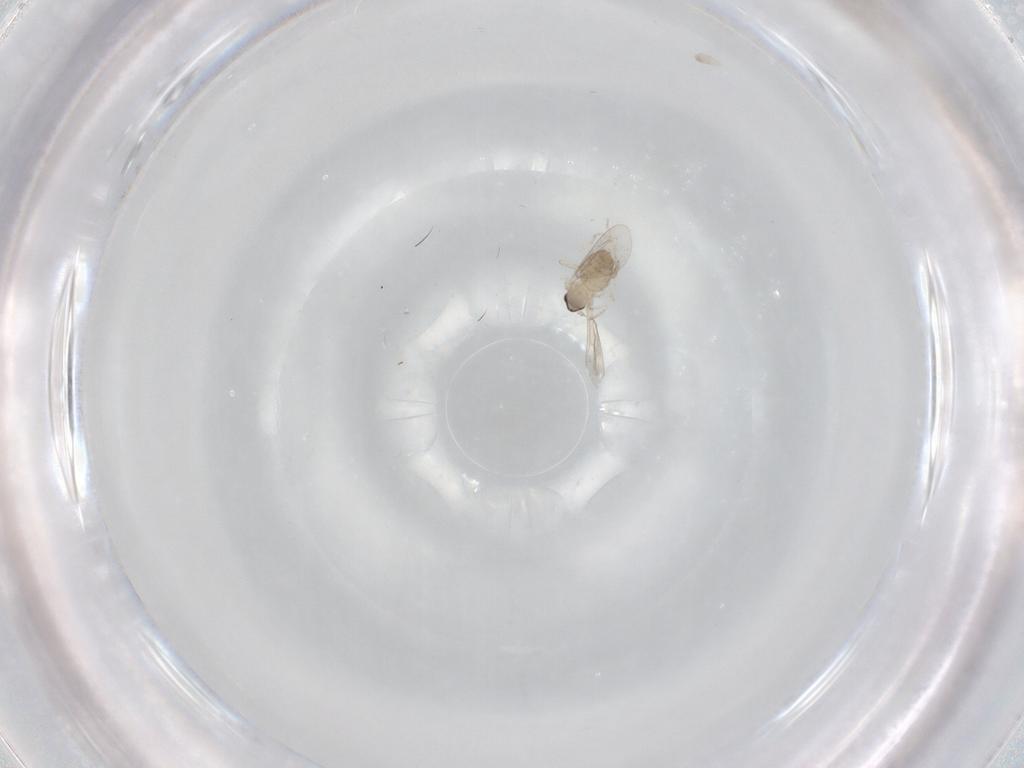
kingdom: Animalia
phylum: Arthropoda
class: Insecta
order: Diptera
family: Cecidomyiidae
